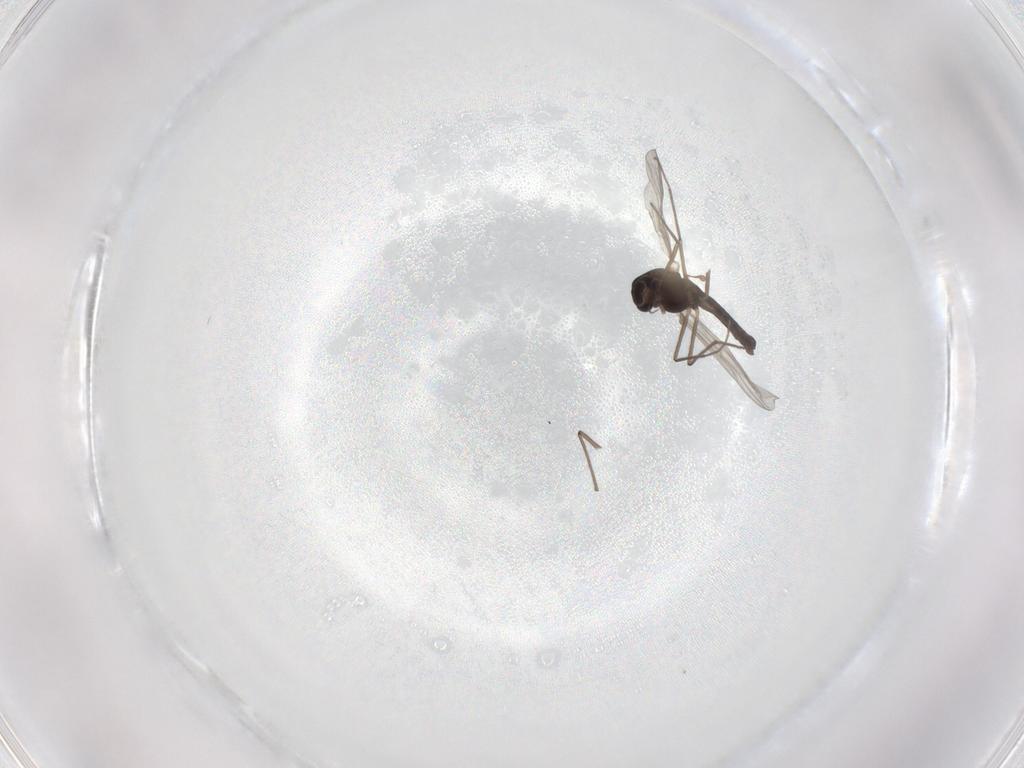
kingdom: Animalia
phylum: Arthropoda
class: Insecta
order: Diptera
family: Chironomidae
